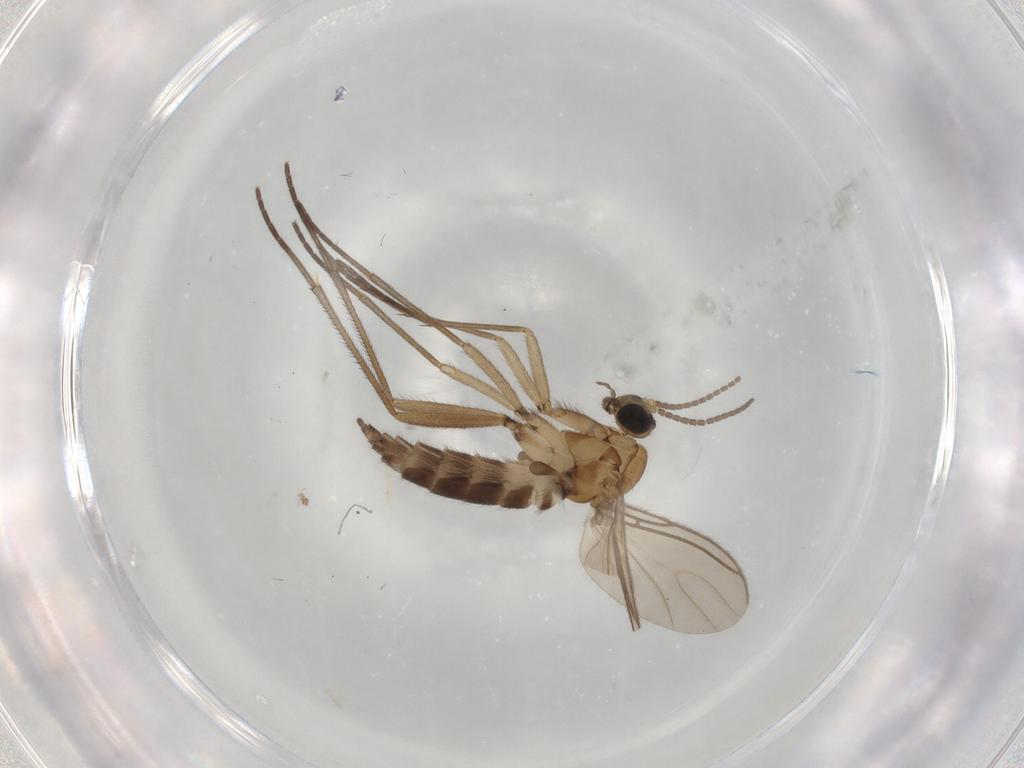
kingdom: Animalia
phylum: Arthropoda
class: Insecta
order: Diptera
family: Sciaridae
